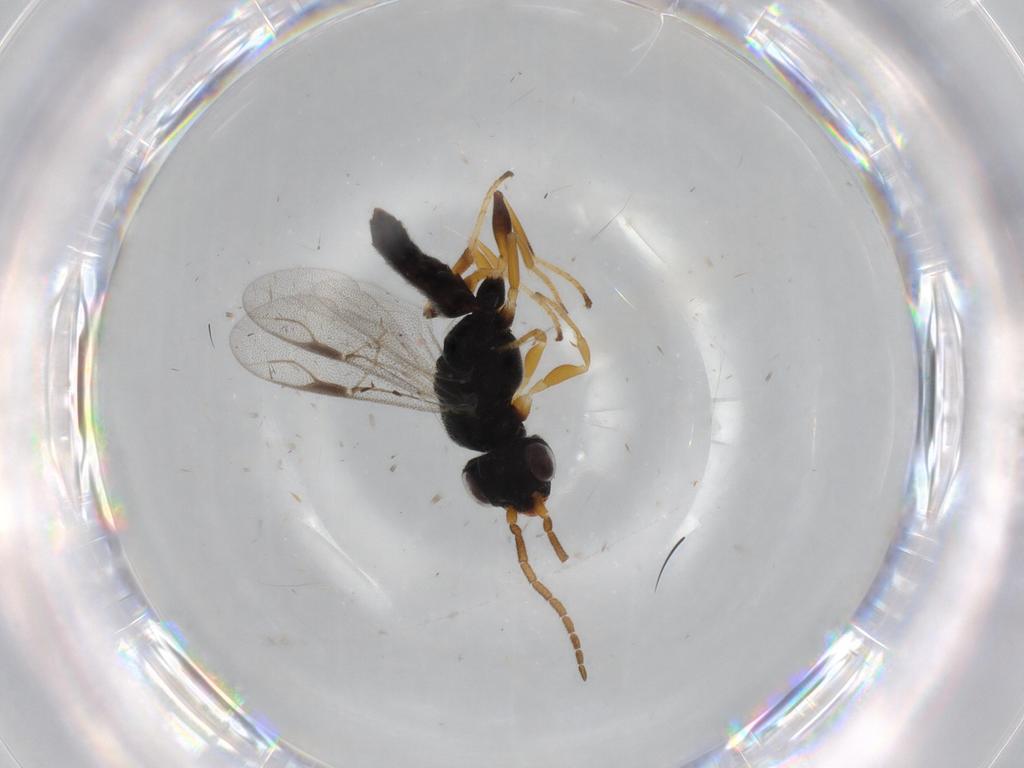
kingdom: Animalia
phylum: Arthropoda
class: Insecta
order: Hymenoptera
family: Dryinidae
